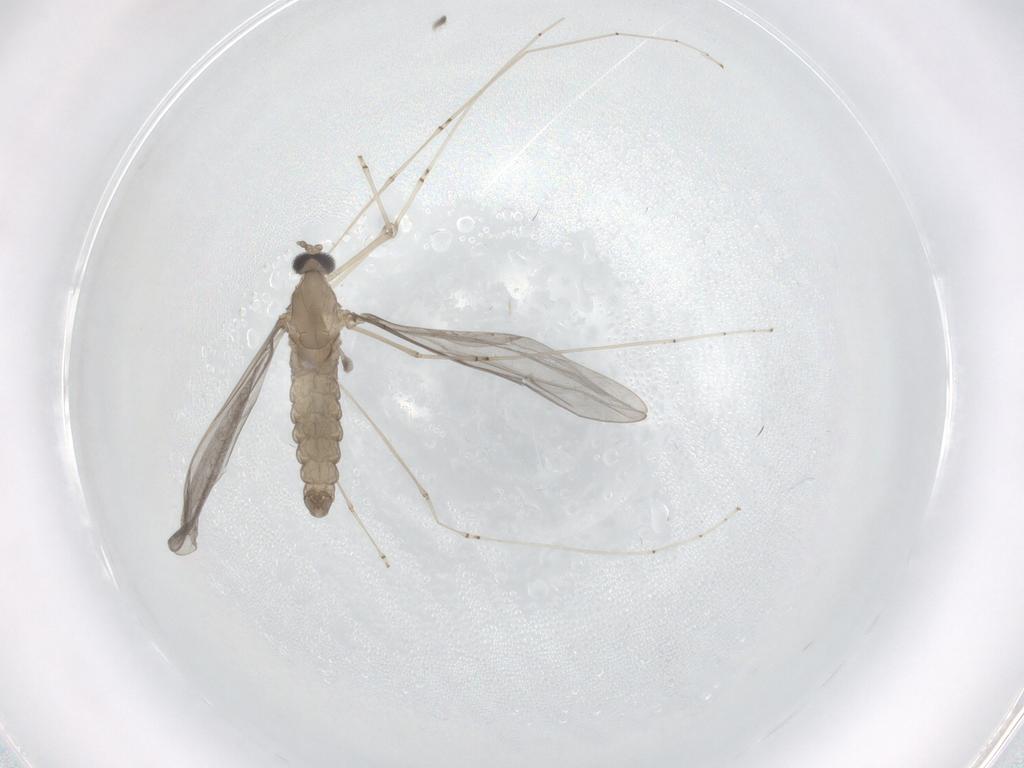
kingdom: Animalia
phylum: Arthropoda
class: Insecta
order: Diptera
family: Cecidomyiidae
